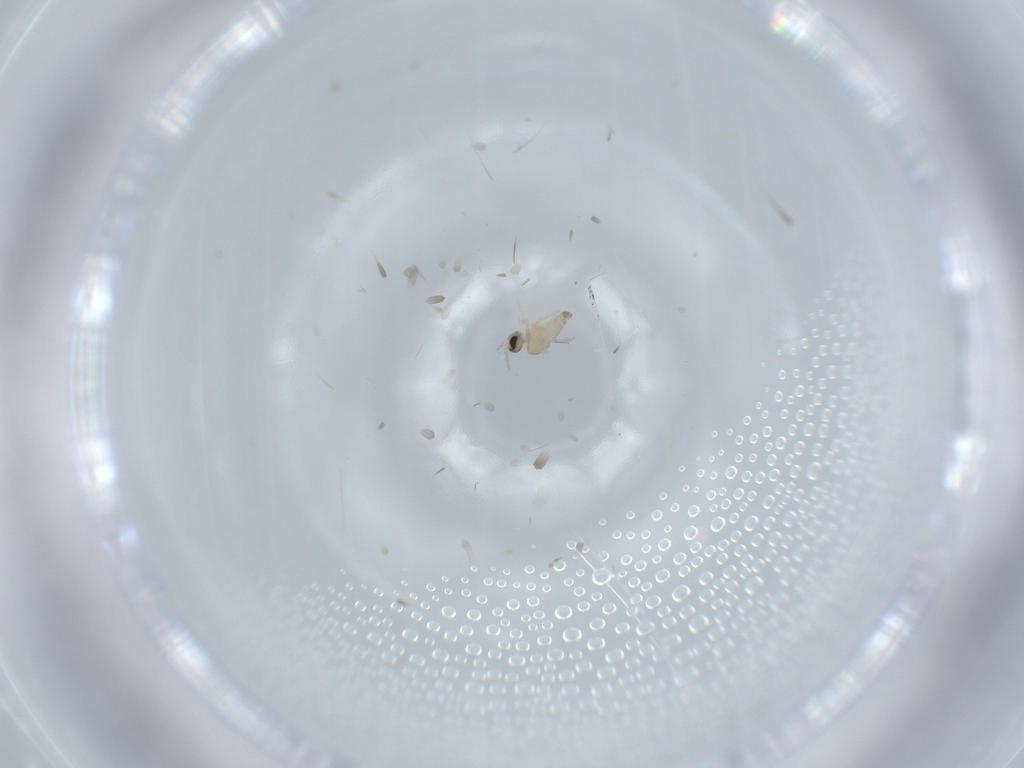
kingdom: Animalia
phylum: Arthropoda
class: Insecta
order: Diptera
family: Cecidomyiidae
